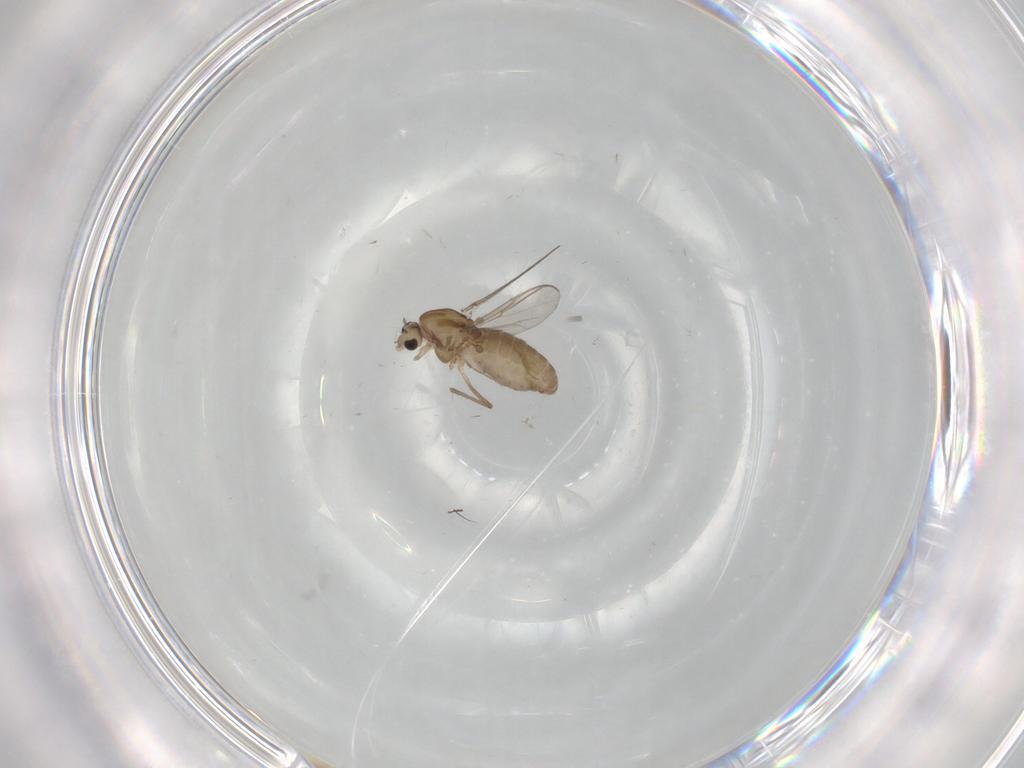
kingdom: Animalia
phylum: Arthropoda
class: Insecta
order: Diptera
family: Chironomidae
